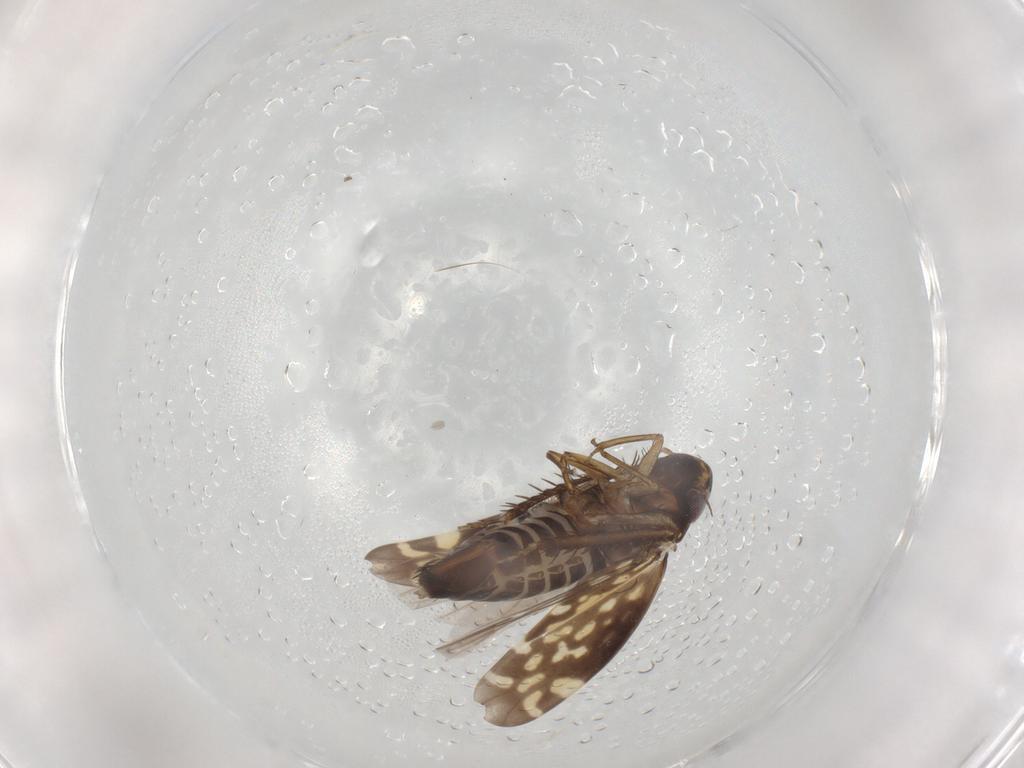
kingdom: Animalia
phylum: Arthropoda
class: Insecta
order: Hemiptera
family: Cicadellidae
